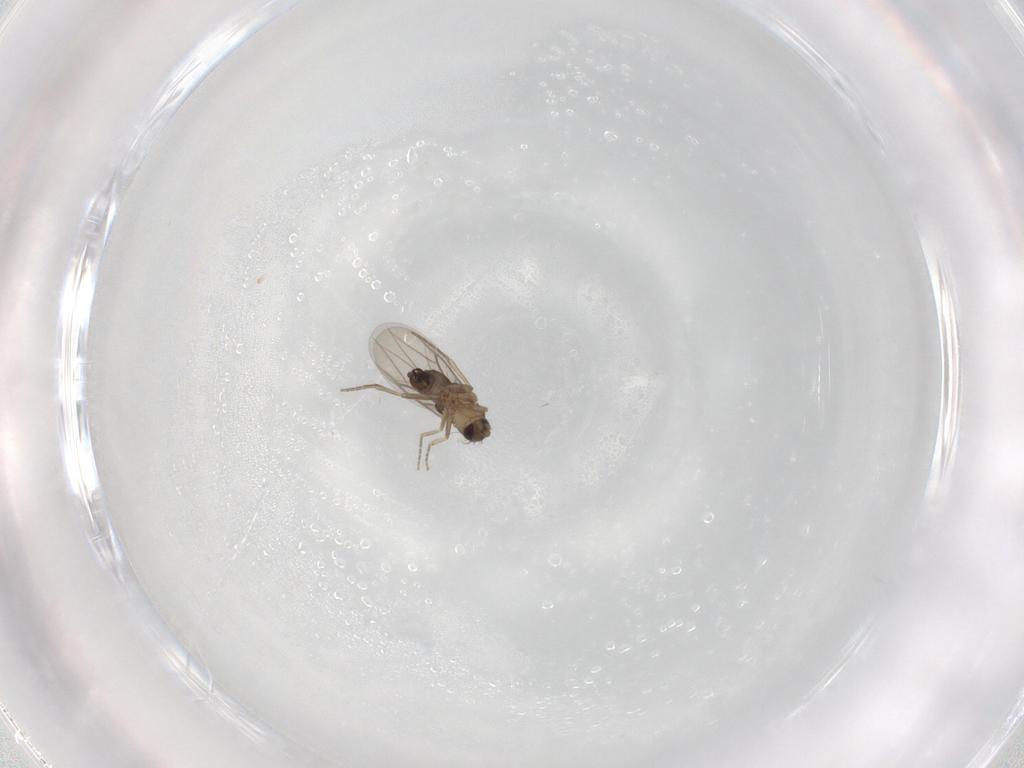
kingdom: Animalia
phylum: Arthropoda
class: Insecta
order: Diptera
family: Phoridae
